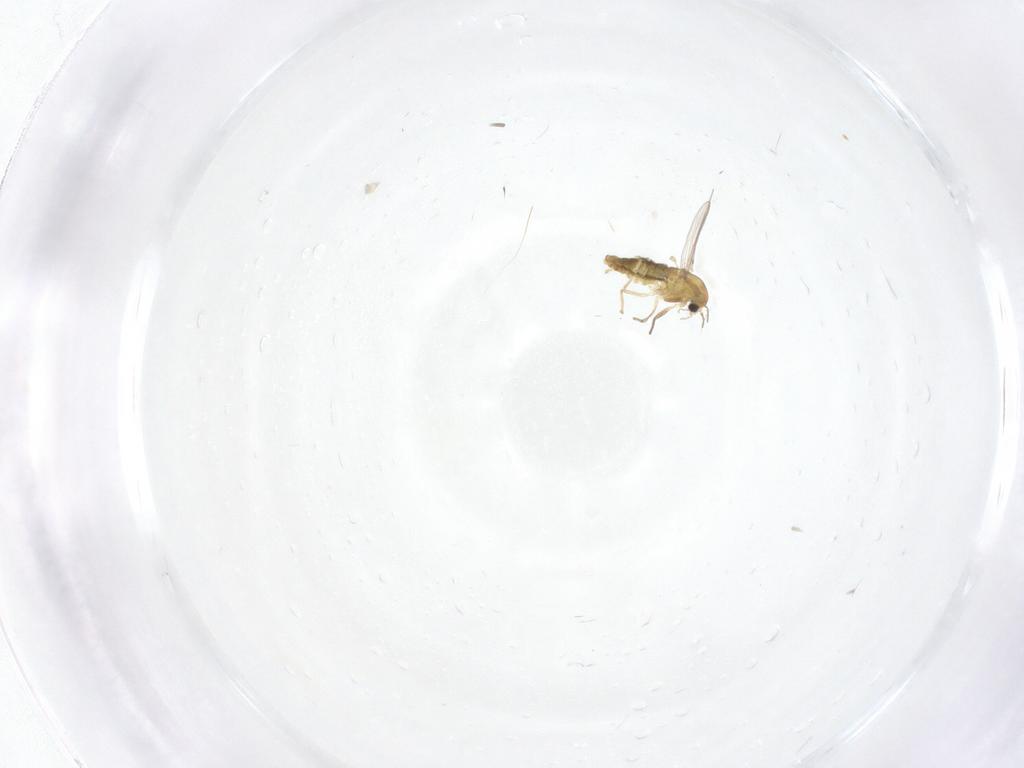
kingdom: Animalia
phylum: Arthropoda
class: Insecta
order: Diptera
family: Chironomidae
